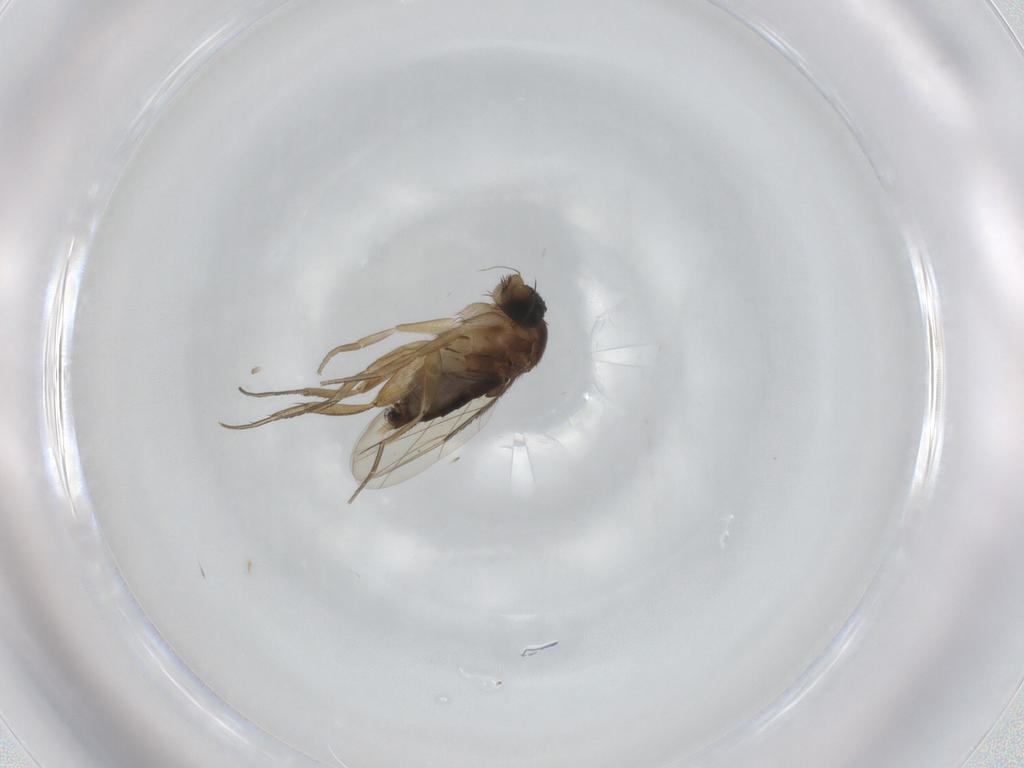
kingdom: Animalia
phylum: Arthropoda
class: Insecta
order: Diptera
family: Phoridae
